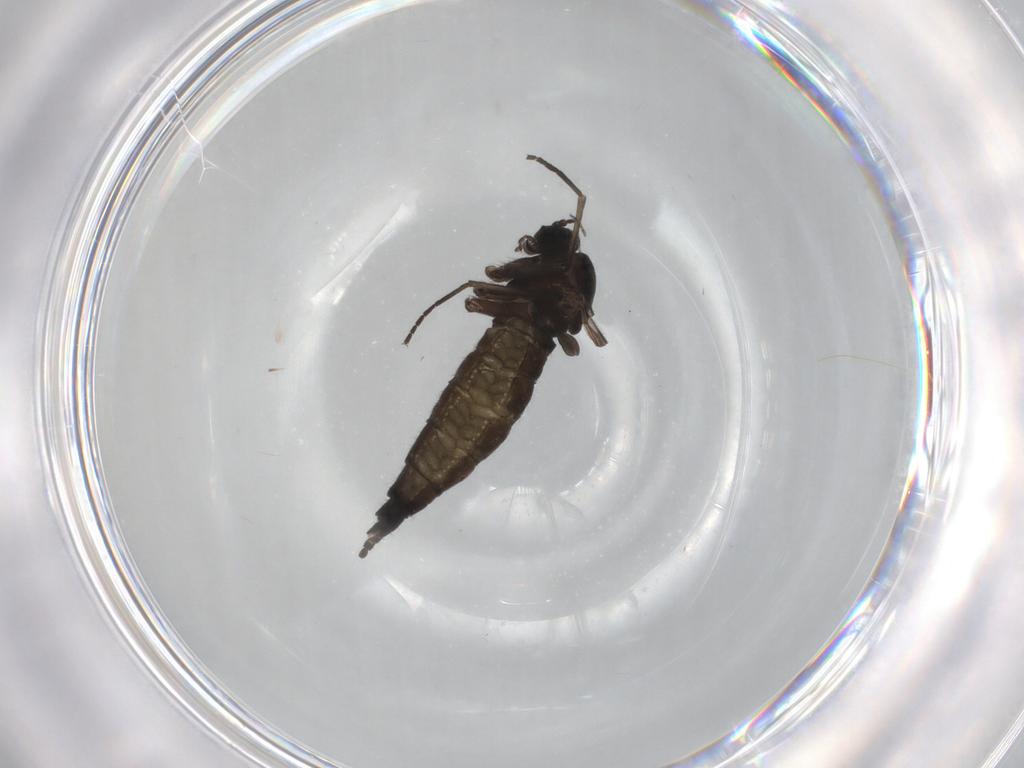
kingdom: Animalia
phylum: Arthropoda
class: Insecta
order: Diptera
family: Sciaridae
